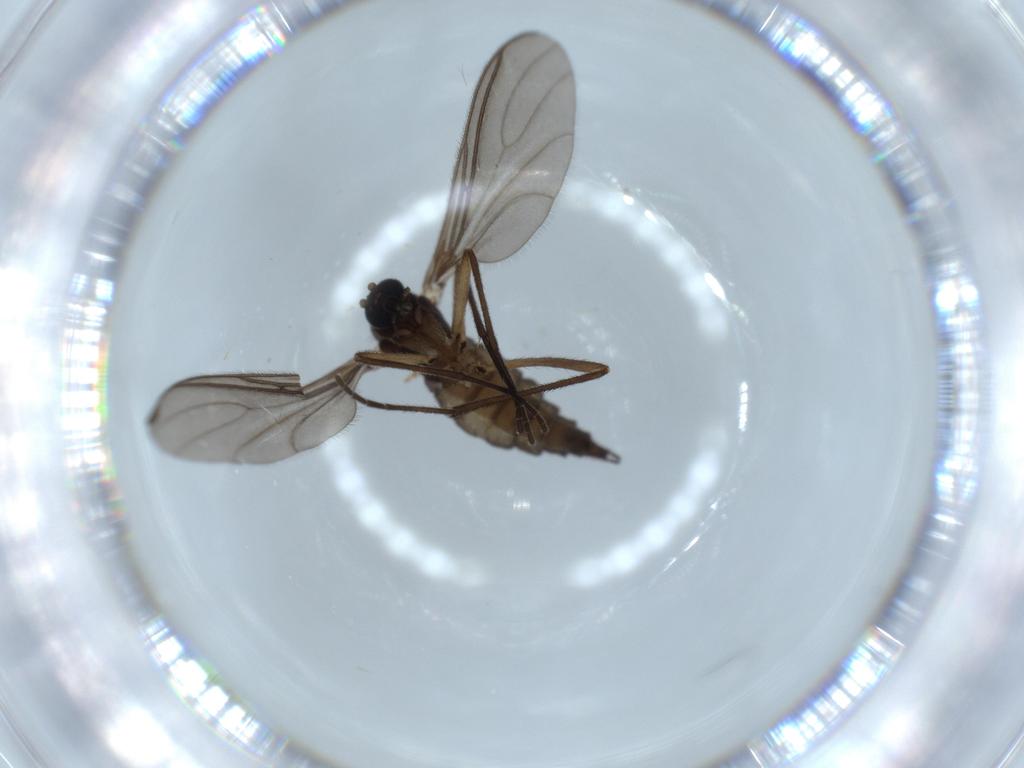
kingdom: Animalia
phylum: Arthropoda
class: Insecta
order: Diptera
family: Sciaridae
